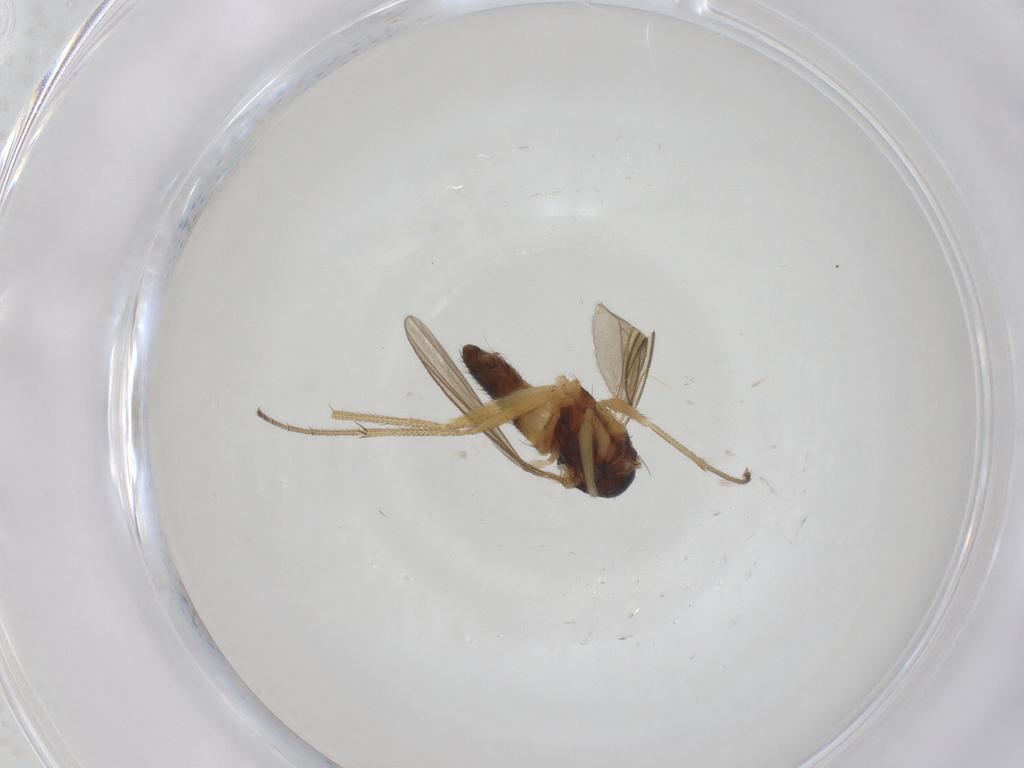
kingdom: Animalia
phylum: Arthropoda
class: Insecta
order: Diptera
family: Dolichopodidae
